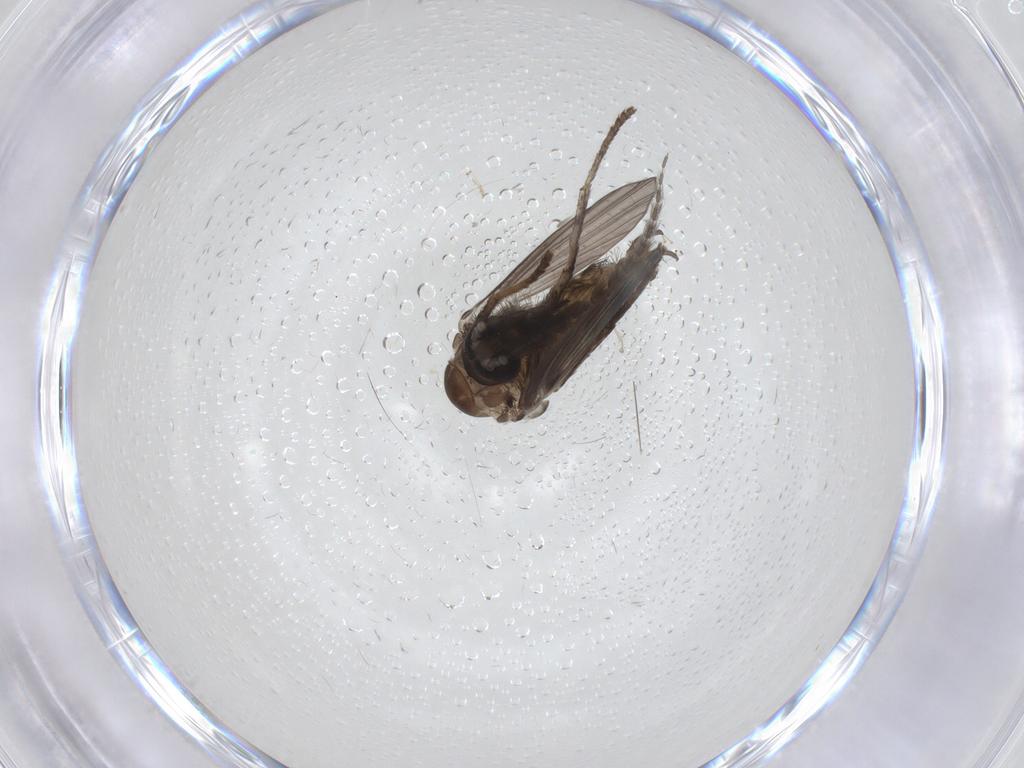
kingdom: Animalia
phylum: Arthropoda
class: Insecta
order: Diptera
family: Psychodidae
